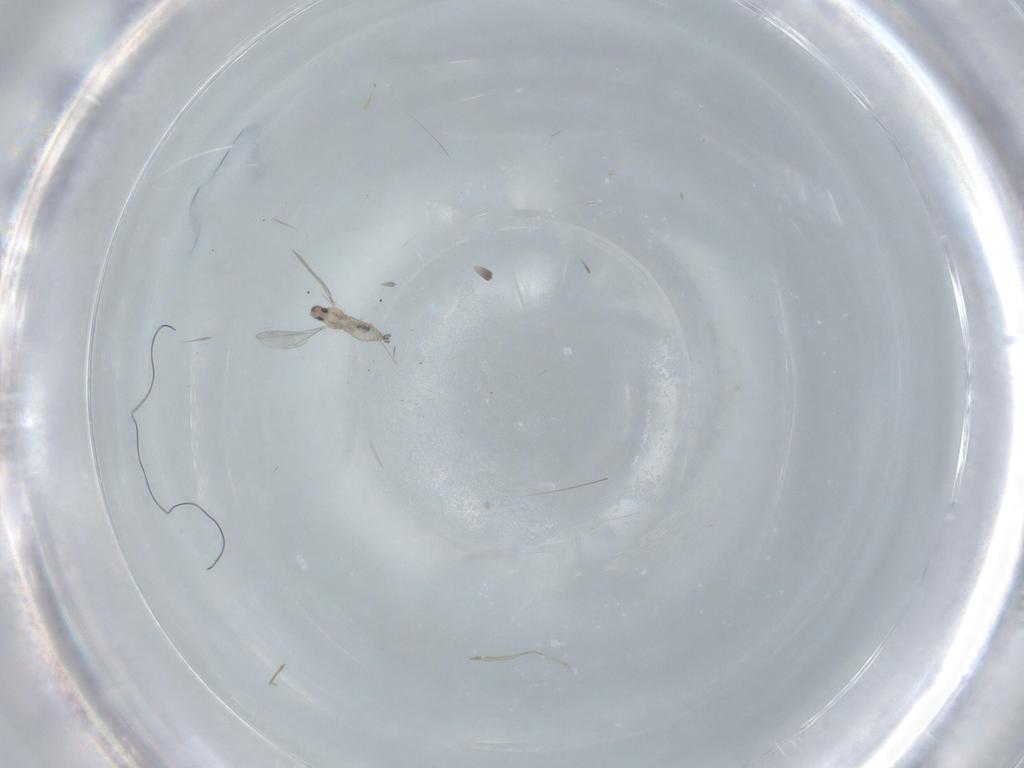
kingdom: Animalia
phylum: Arthropoda
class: Insecta
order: Diptera
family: Cecidomyiidae
